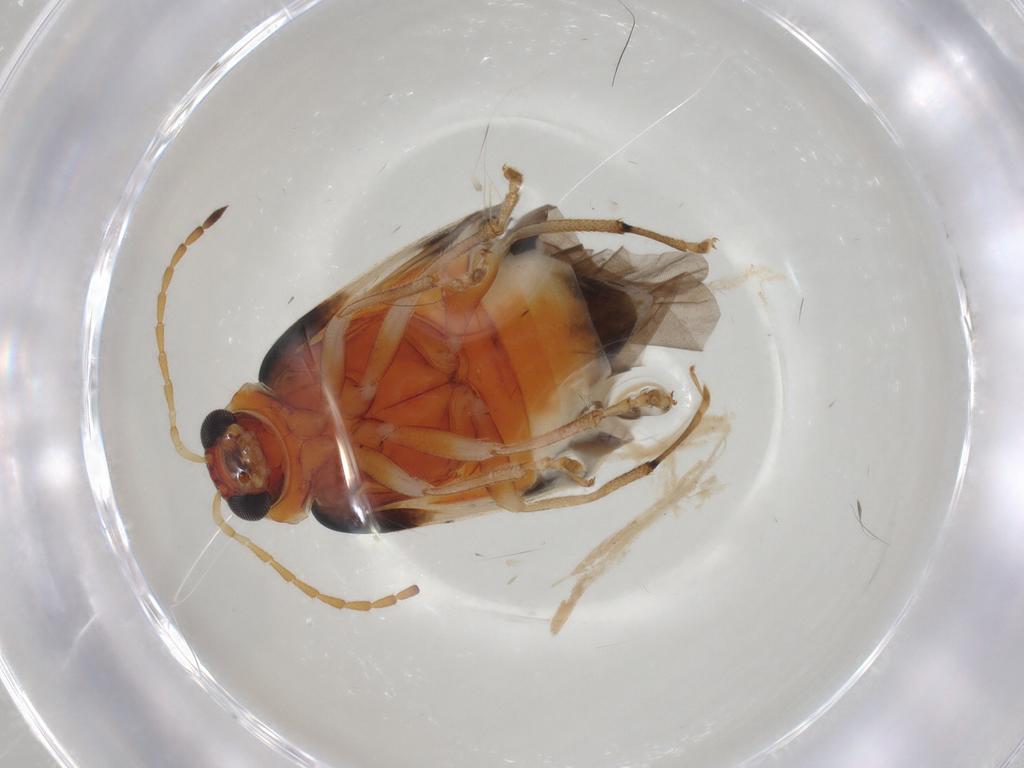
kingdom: Animalia
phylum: Arthropoda
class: Insecta
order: Coleoptera
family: Chrysomelidae
